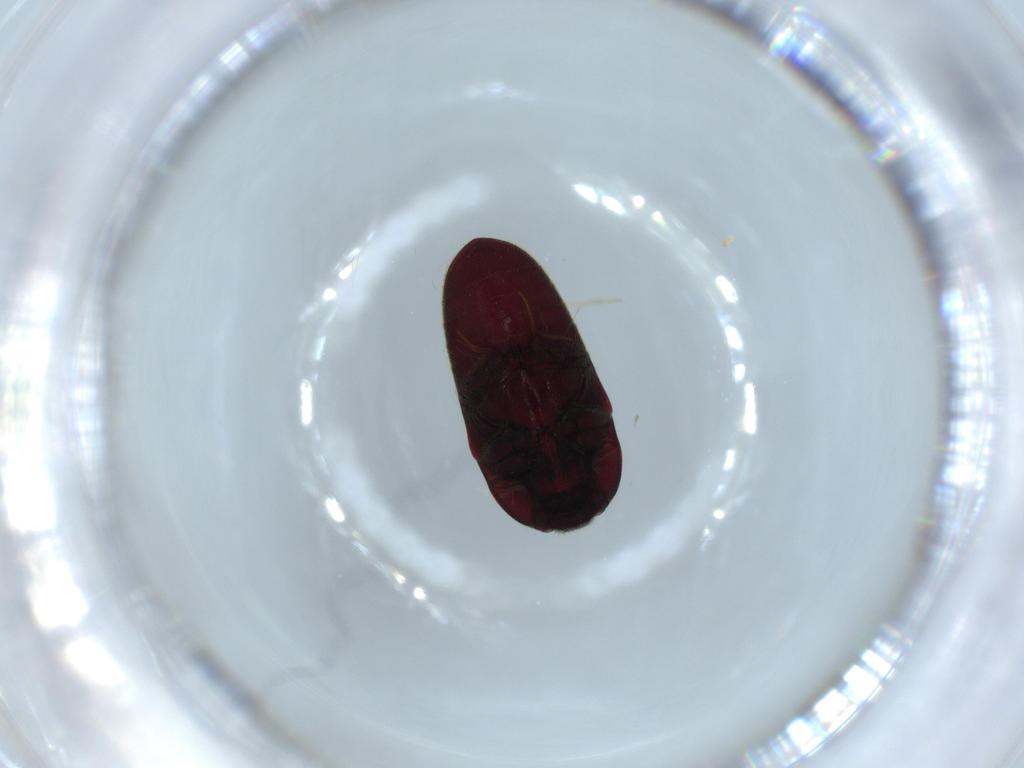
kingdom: Animalia
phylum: Arthropoda
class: Insecta
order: Coleoptera
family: Throscidae
